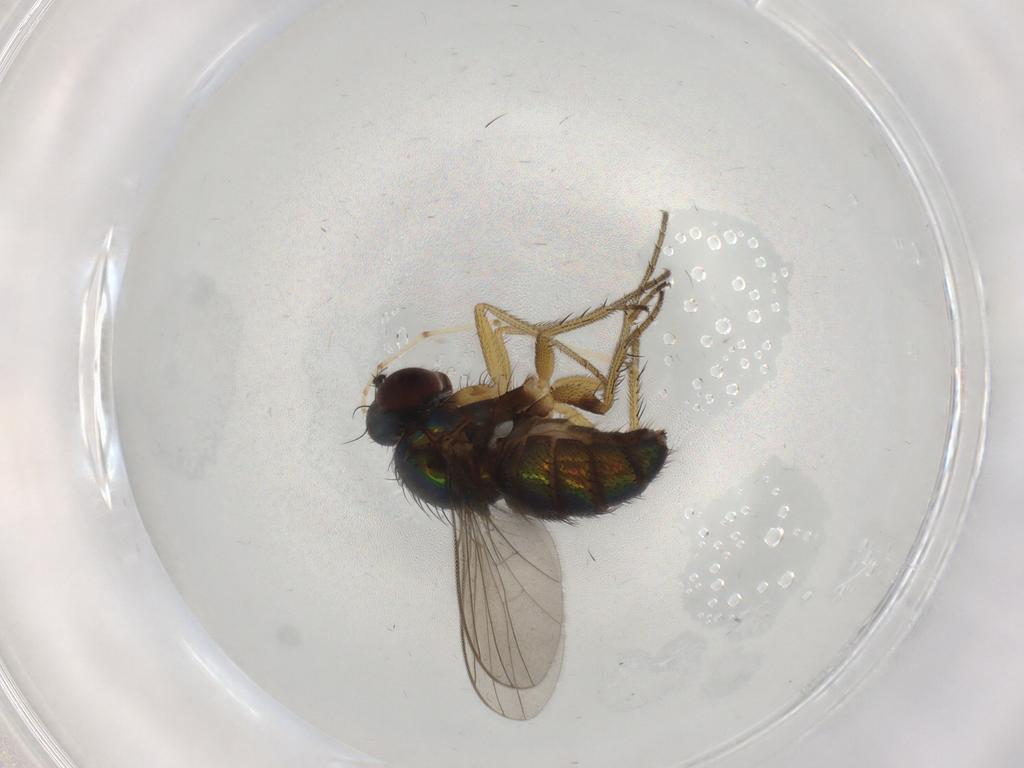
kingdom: Animalia
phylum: Arthropoda
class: Insecta
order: Diptera
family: Dolichopodidae
